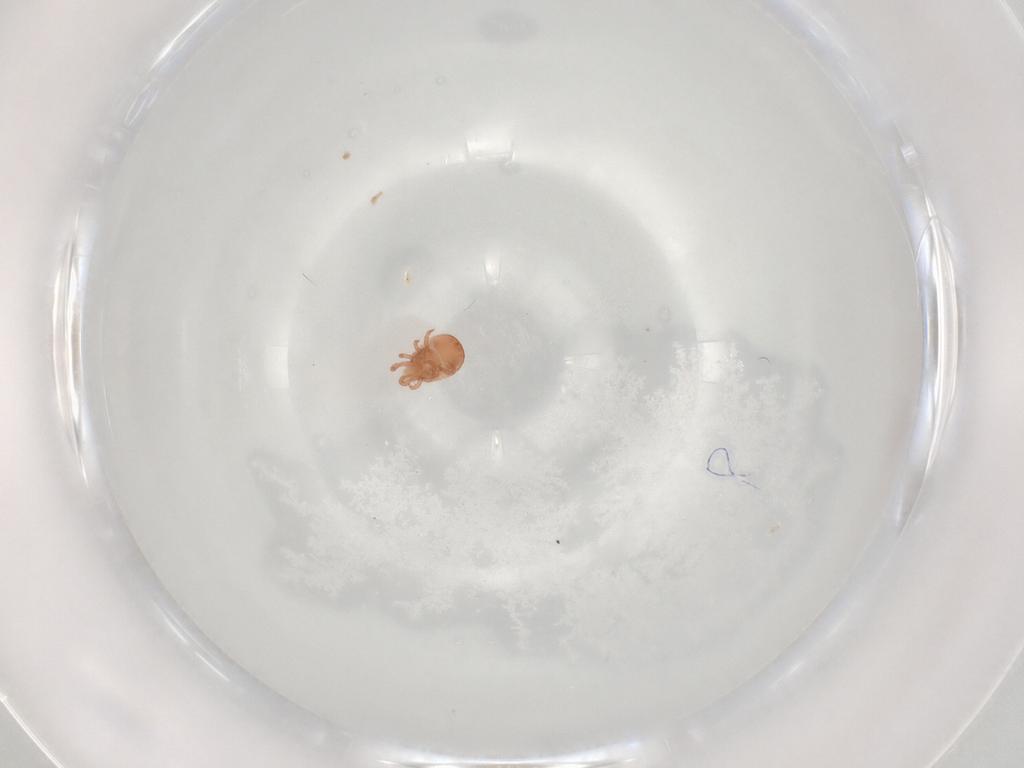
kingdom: Animalia
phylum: Arthropoda
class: Arachnida
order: Mesostigmata
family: Zerconidae
